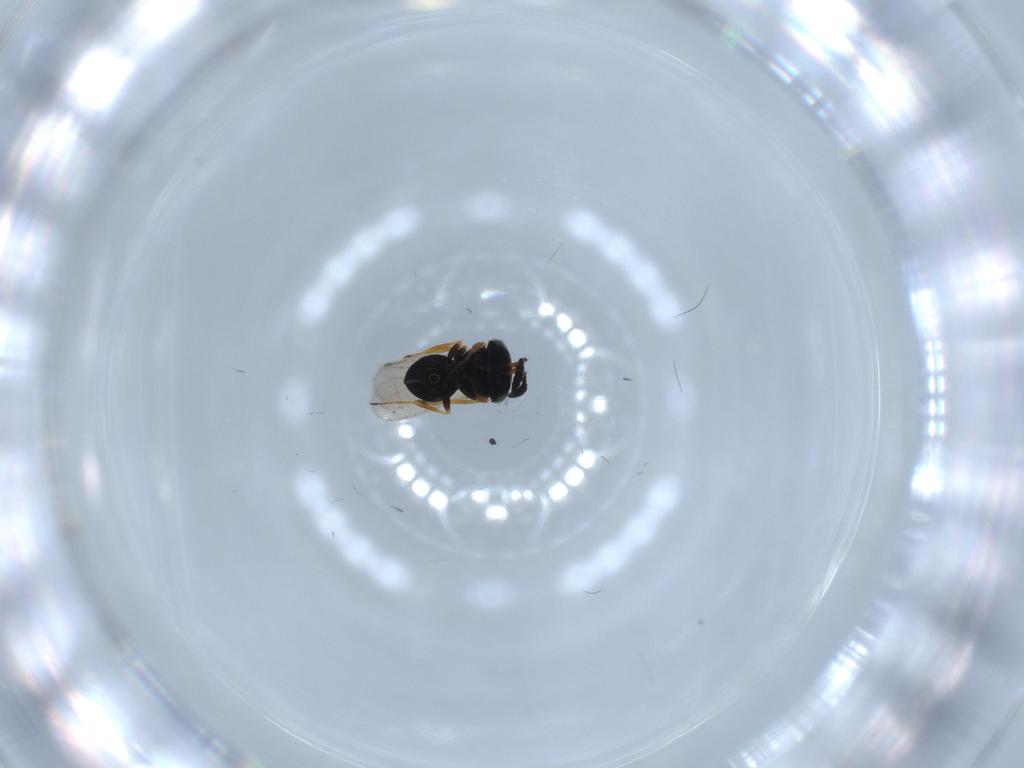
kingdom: Animalia
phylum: Arthropoda
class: Insecta
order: Hymenoptera
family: Scelionidae
